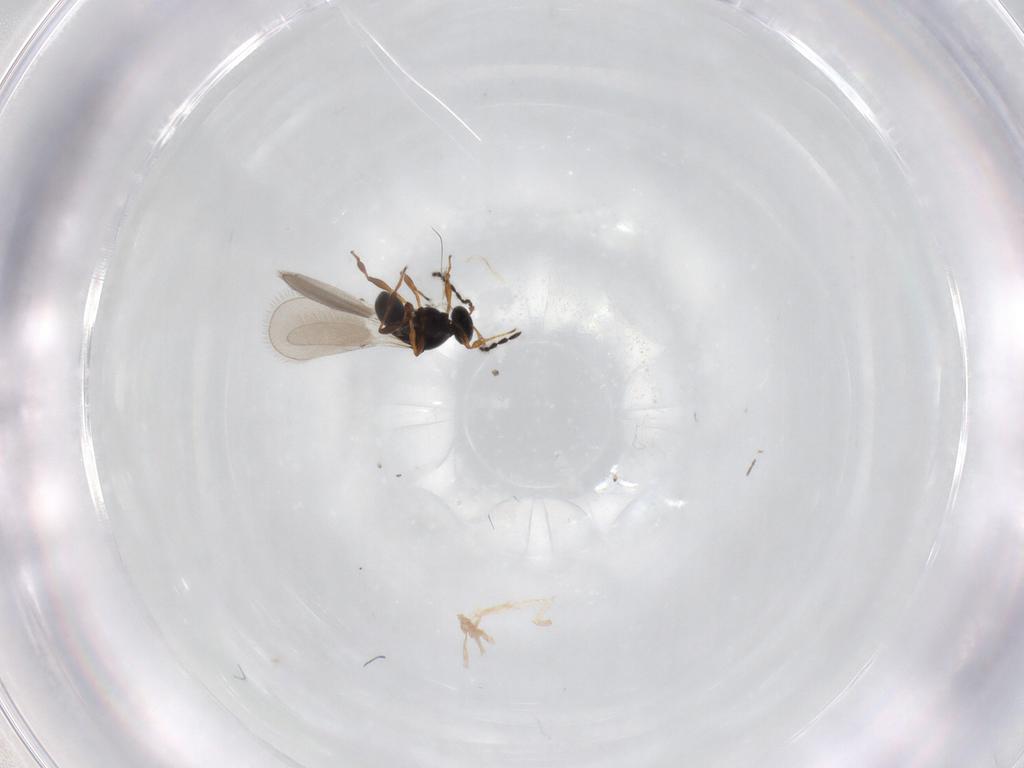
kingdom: Animalia
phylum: Arthropoda
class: Insecta
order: Hymenoptera
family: Platygastridae
